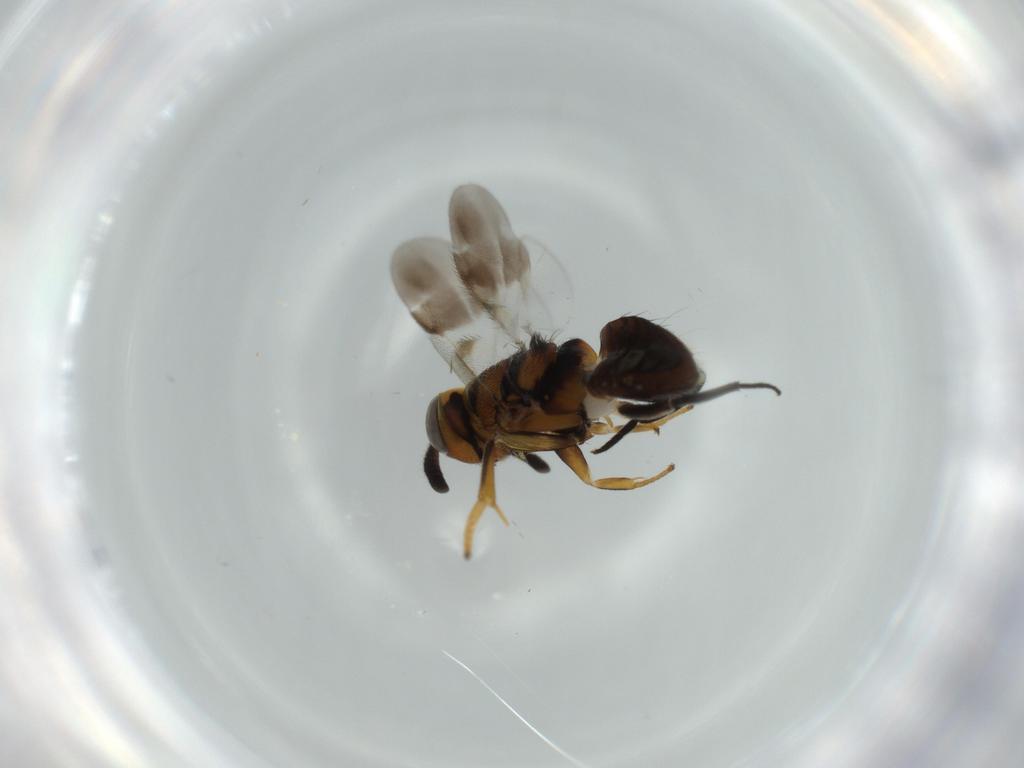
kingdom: Animalia
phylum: Arthropoda
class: Insecta
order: Hymenoptera
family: Encyrtidae
